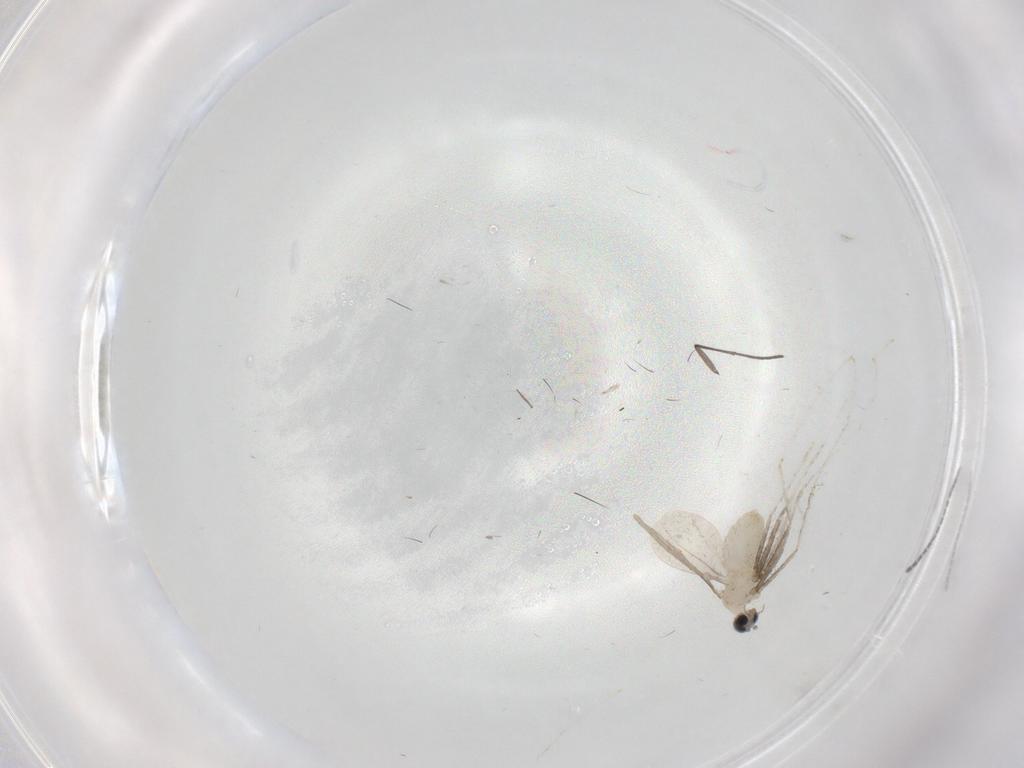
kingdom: Animalia
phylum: Arthropoda
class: Insecta
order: Diptera
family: Cecidomyiidae
